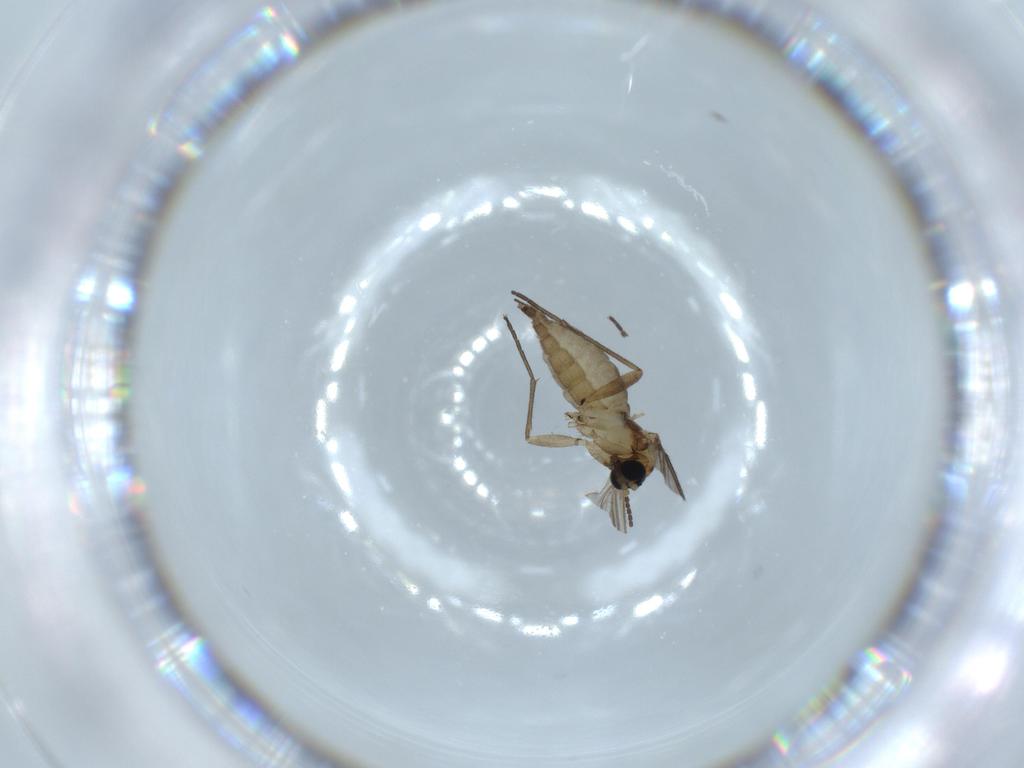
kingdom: Animalia
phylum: Arthropoda
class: Insecta
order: Diptera
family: Sciaridae
